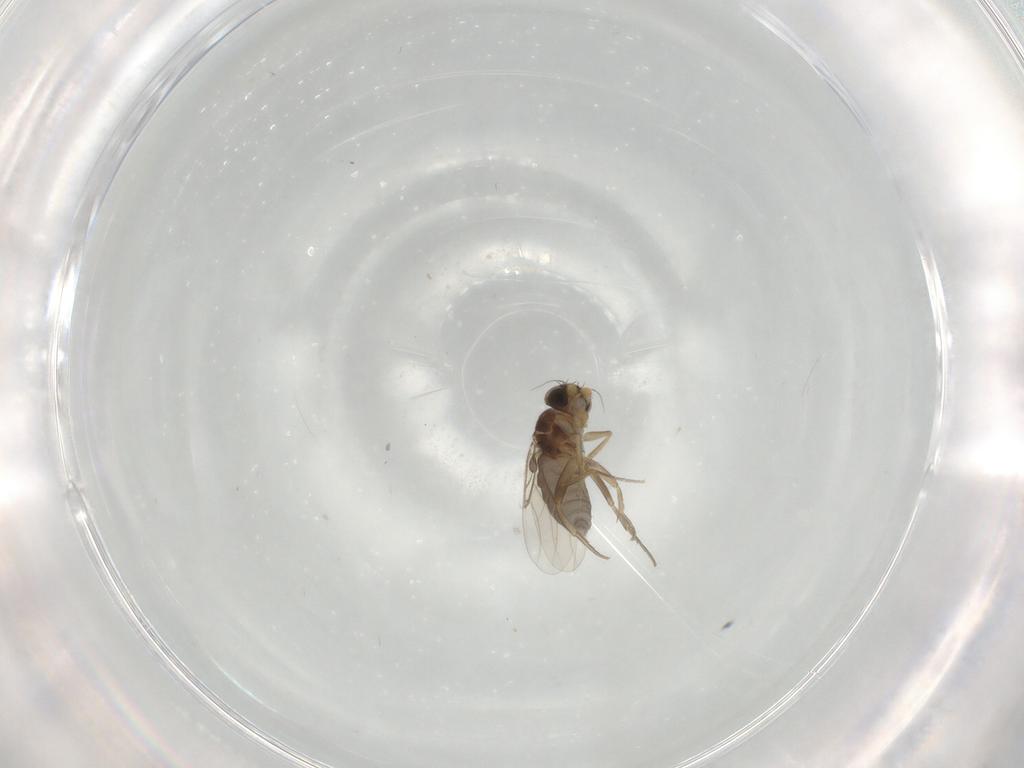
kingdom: Animalia
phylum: Arthropoda
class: Insecta
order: Diptera
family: Phoridae
